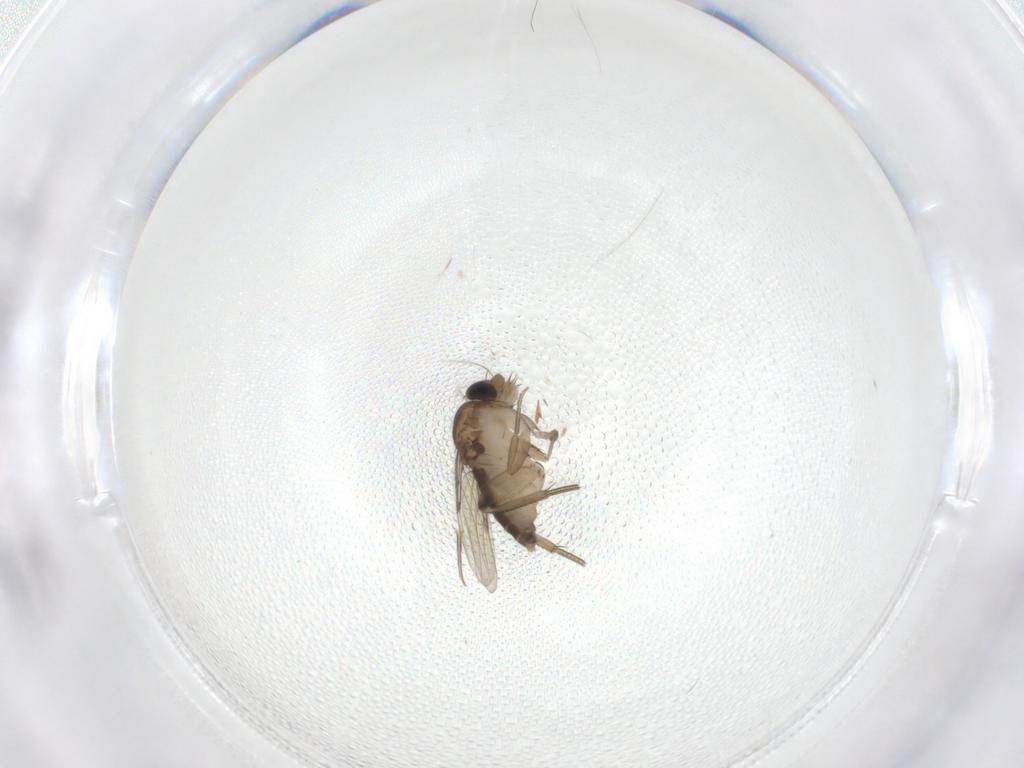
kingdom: Animalia
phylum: Arthropoda
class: Insecta
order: Diptera
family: Phoridae
